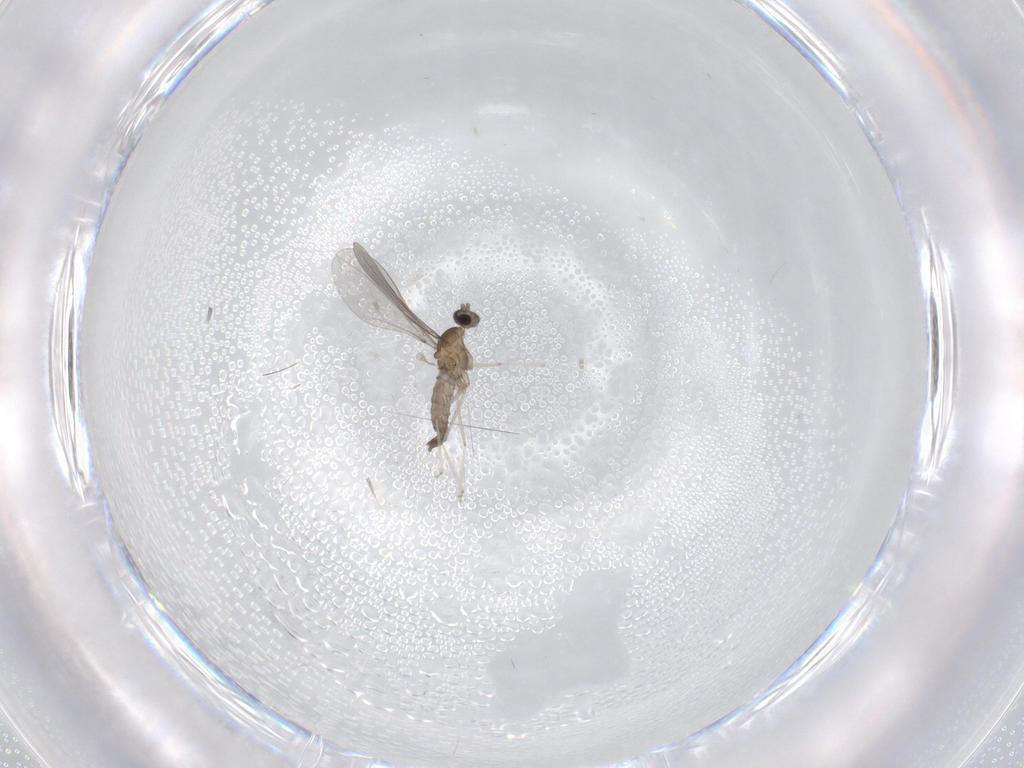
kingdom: Animalia
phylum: Arthropoda
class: Insecta
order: Diptera
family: Cecidomyiidae
